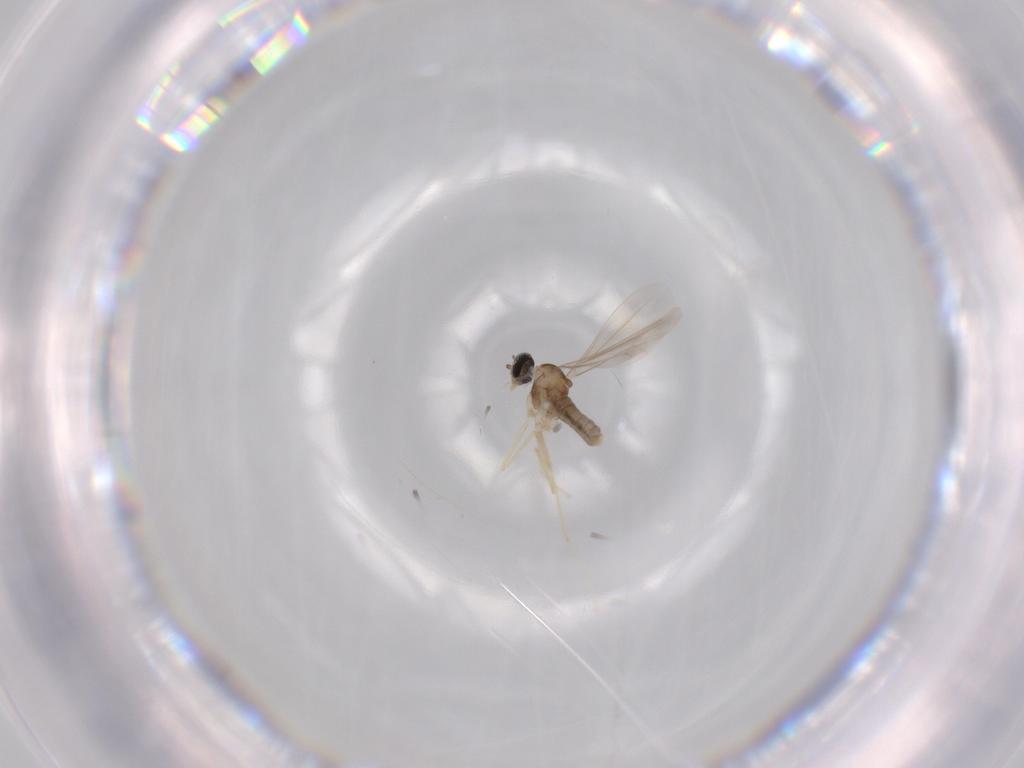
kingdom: Animalia
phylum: Arthropoda
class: Insecta
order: Diptera
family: Cecidomyiidae
